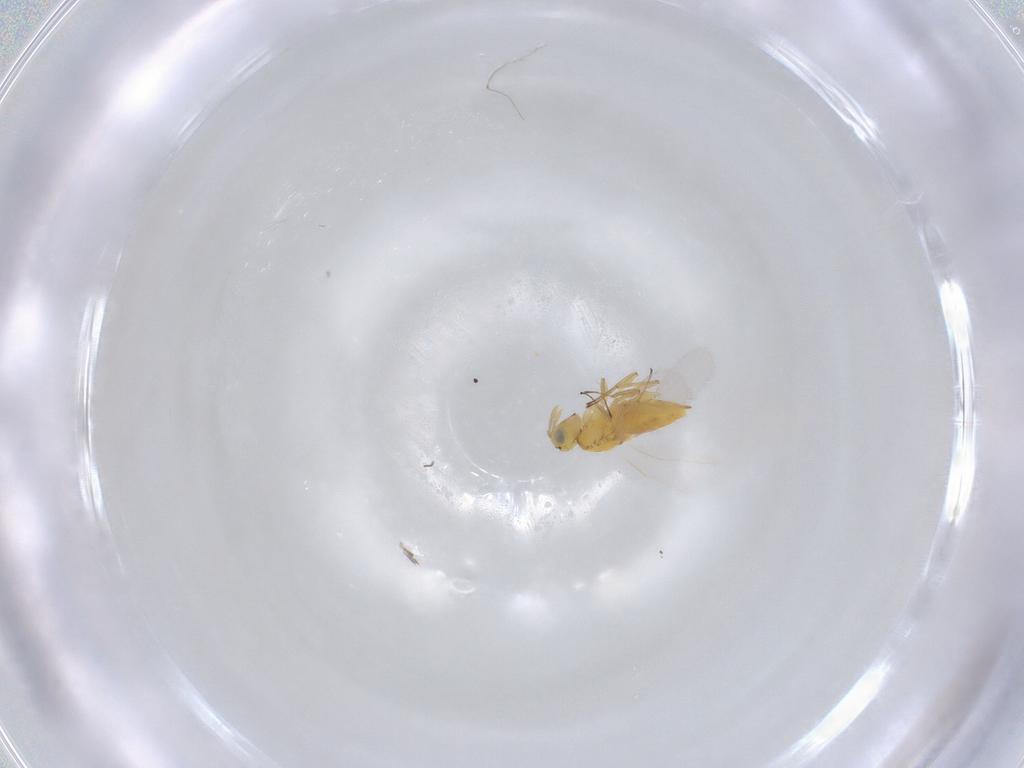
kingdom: Animalia
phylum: Arthropoda
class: Insecta
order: Hymenoptera
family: Aphelinidae
